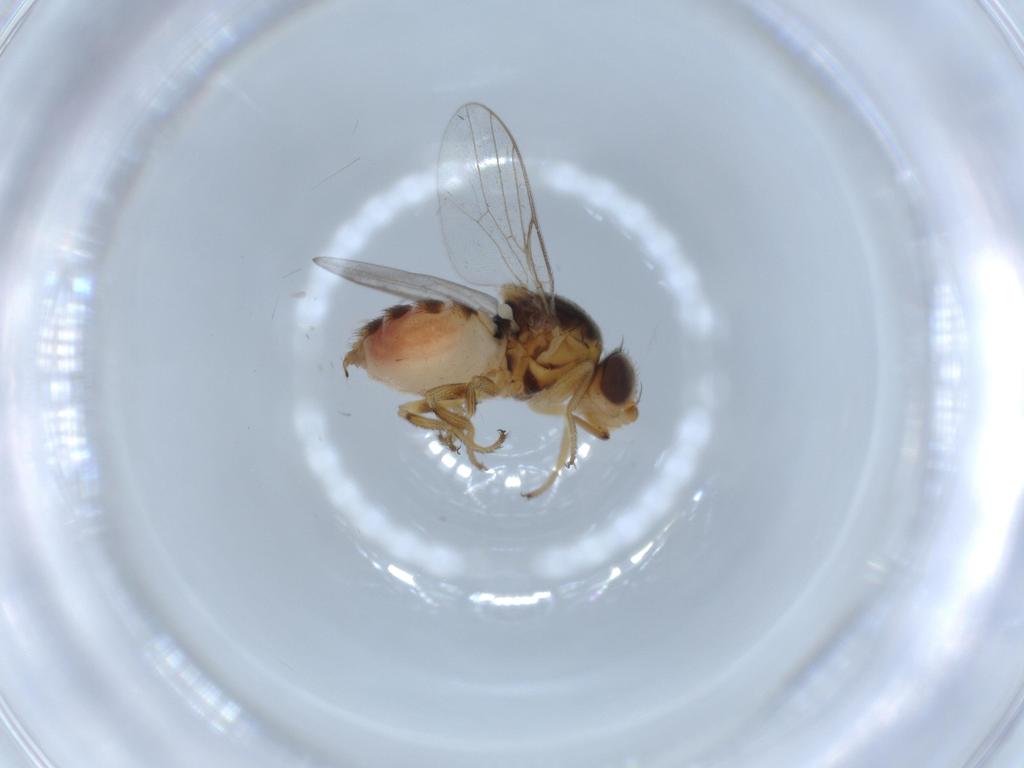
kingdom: Animalia
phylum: Arthropoda
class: Insecta
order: Diptera
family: Chloropidae
